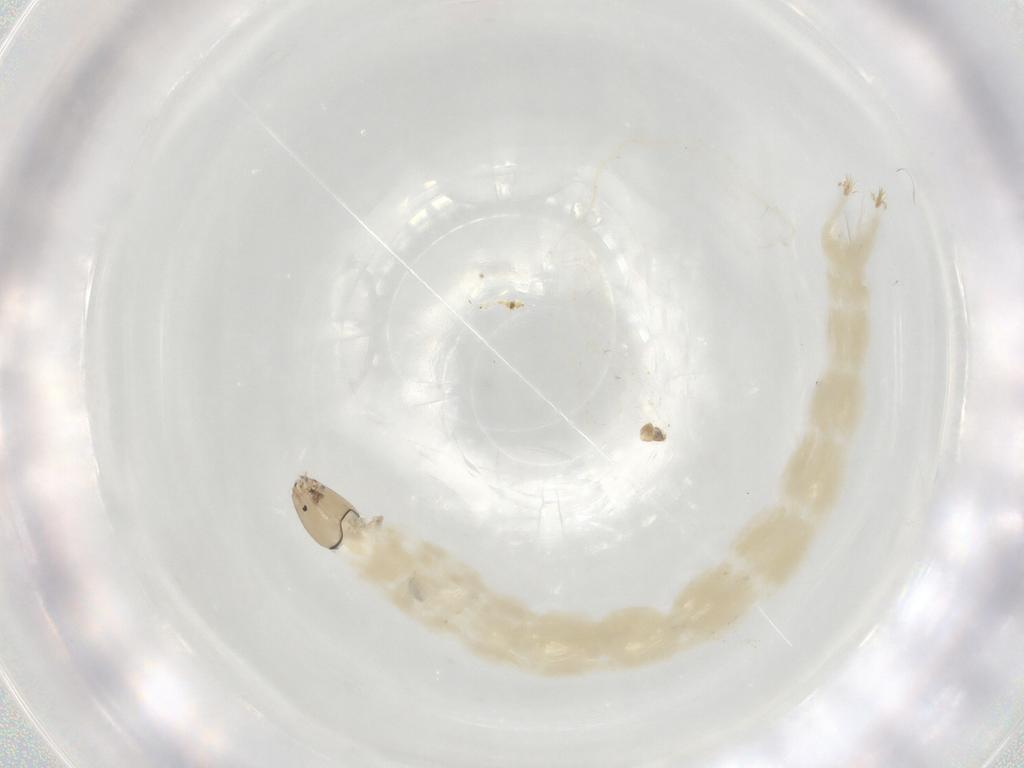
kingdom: Animalia
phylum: Arthropoda
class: Insecta
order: Diptera
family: Chironomidae
